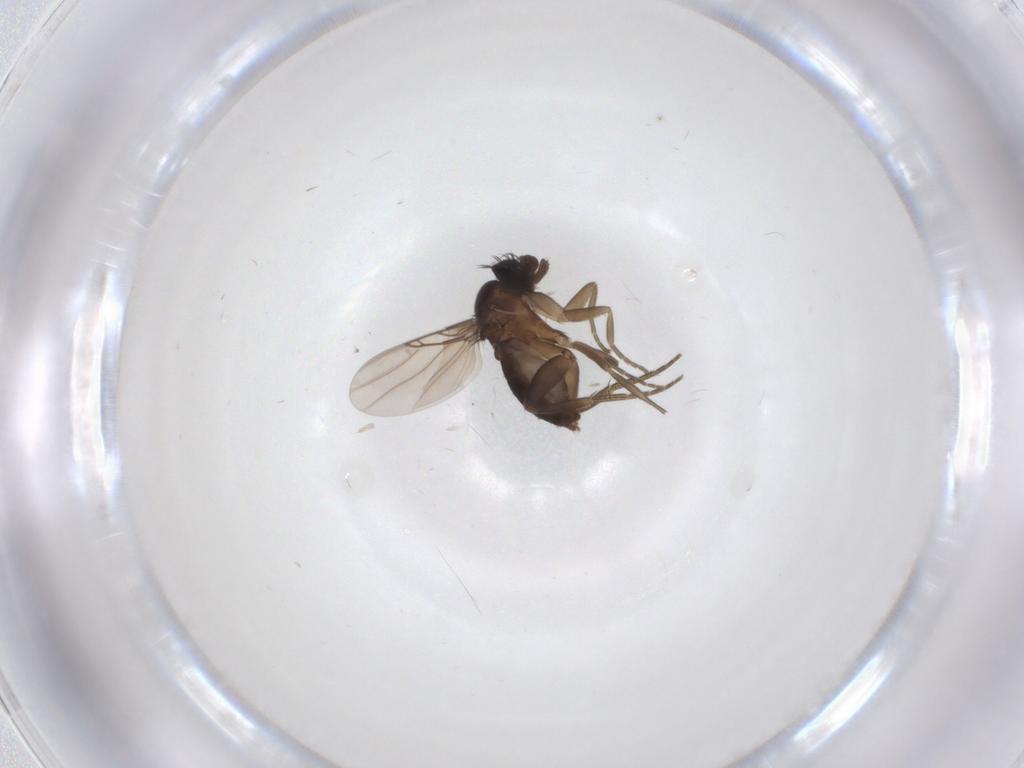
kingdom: Animalia
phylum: Arthropoda
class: Insecta
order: Diptera
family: Phoridae
